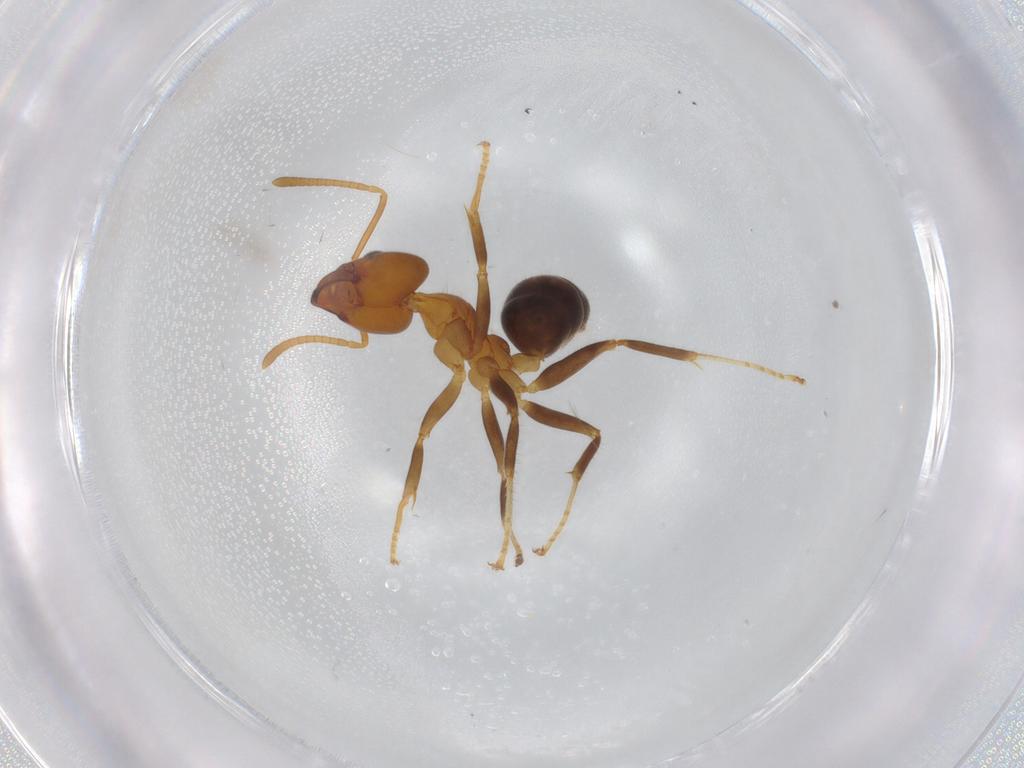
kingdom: Animalia
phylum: Arthropoda
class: Insecta
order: Hymenoptera
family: Formicidae
